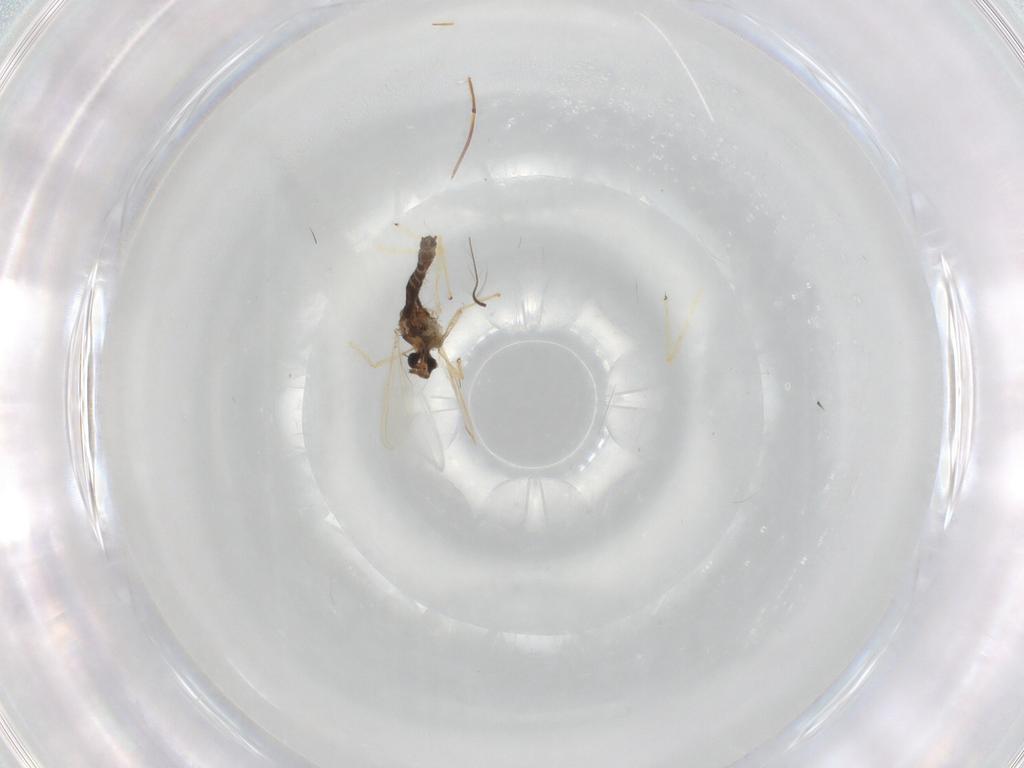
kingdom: Animalia
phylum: Arthropoda
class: Insecta
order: Diptera
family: Chironomidae
